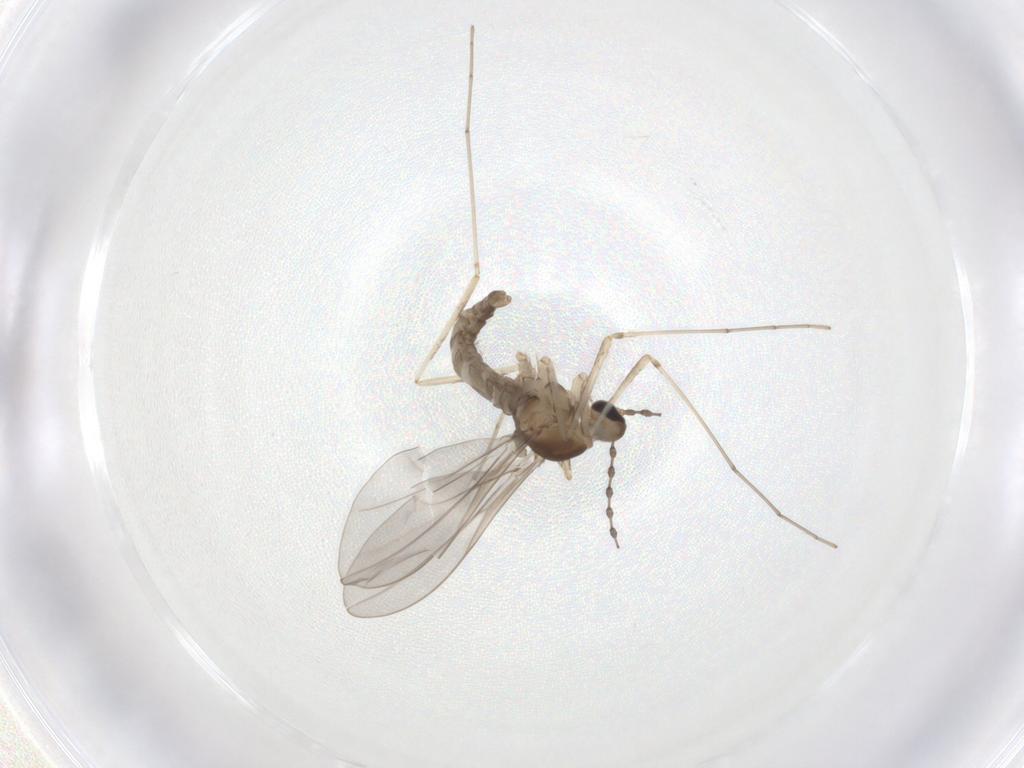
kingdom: Animalia
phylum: Arthropoda
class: Insecta
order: Diptera
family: Cecidomyiidae
